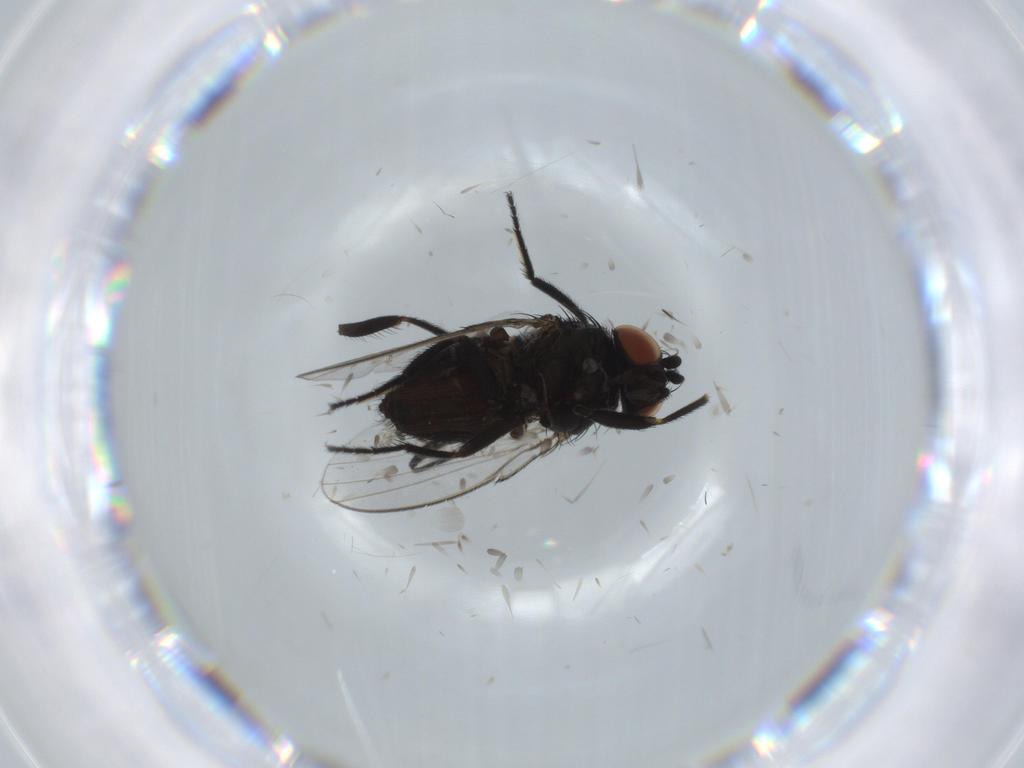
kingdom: Animalia
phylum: Arthropoda
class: Insecta
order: Diptera
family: Milichiidae
